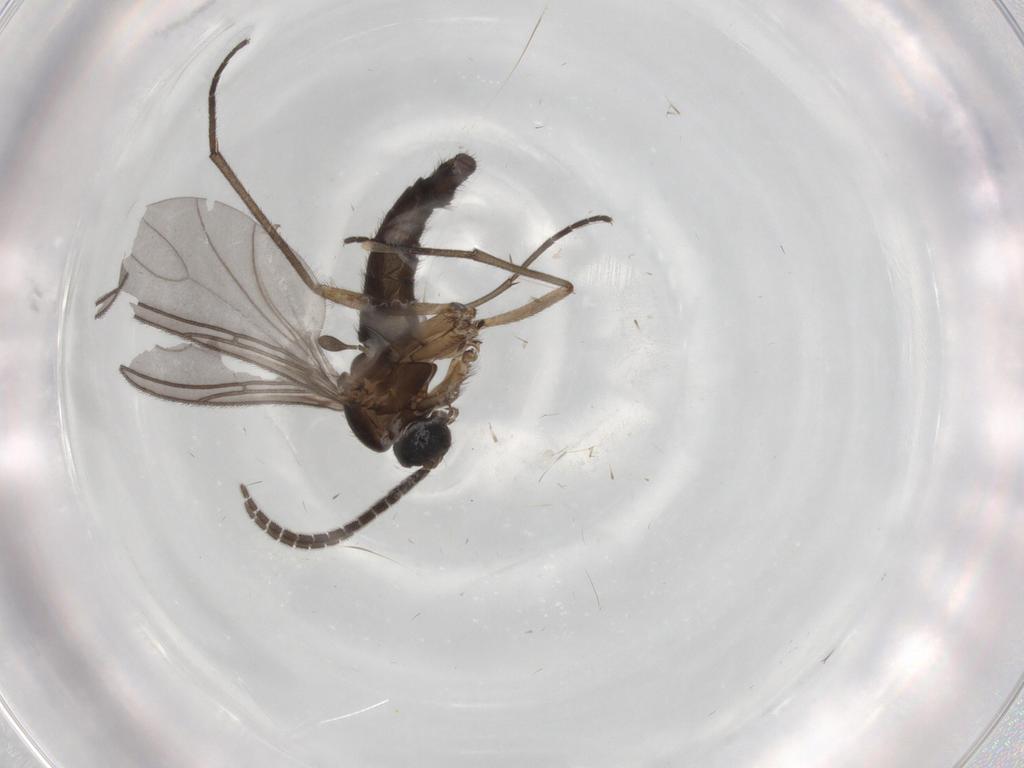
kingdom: Animalia
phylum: Arthropoda
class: Insecta
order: Diptera
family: Sciaridae
